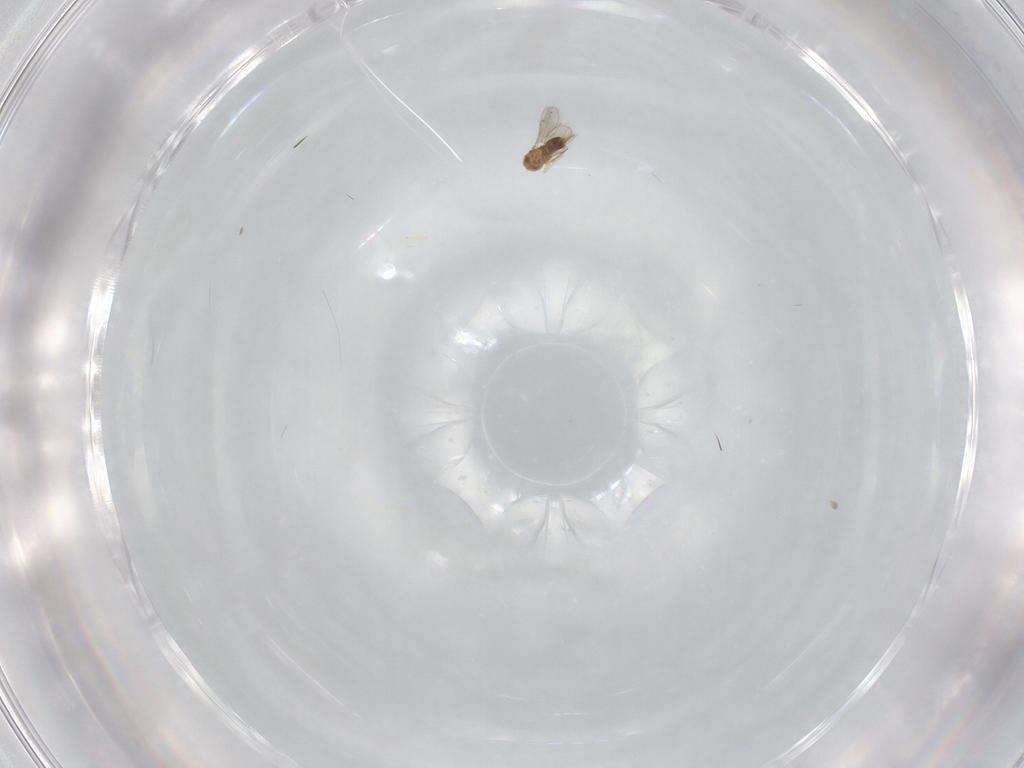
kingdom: Animalia
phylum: Arthropoda
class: Insecta
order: Hymenoptera
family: Aphelinidae
